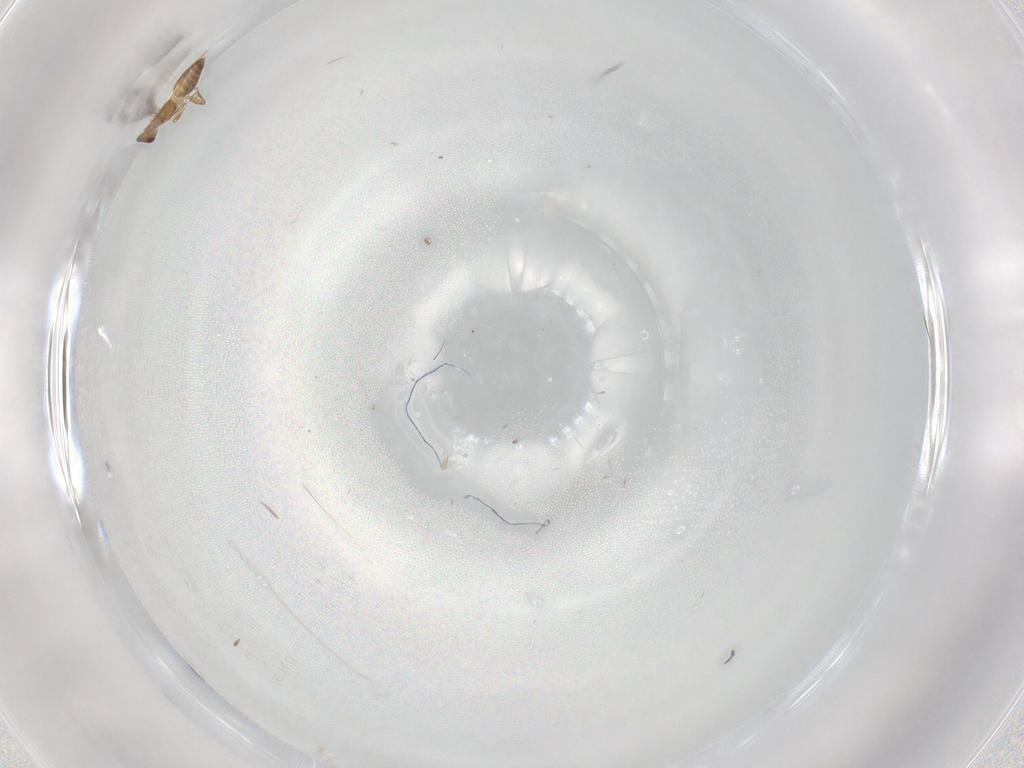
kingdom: Animalia
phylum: Arthropoda
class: Insecta
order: Hymenoptera
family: Mymaridae
